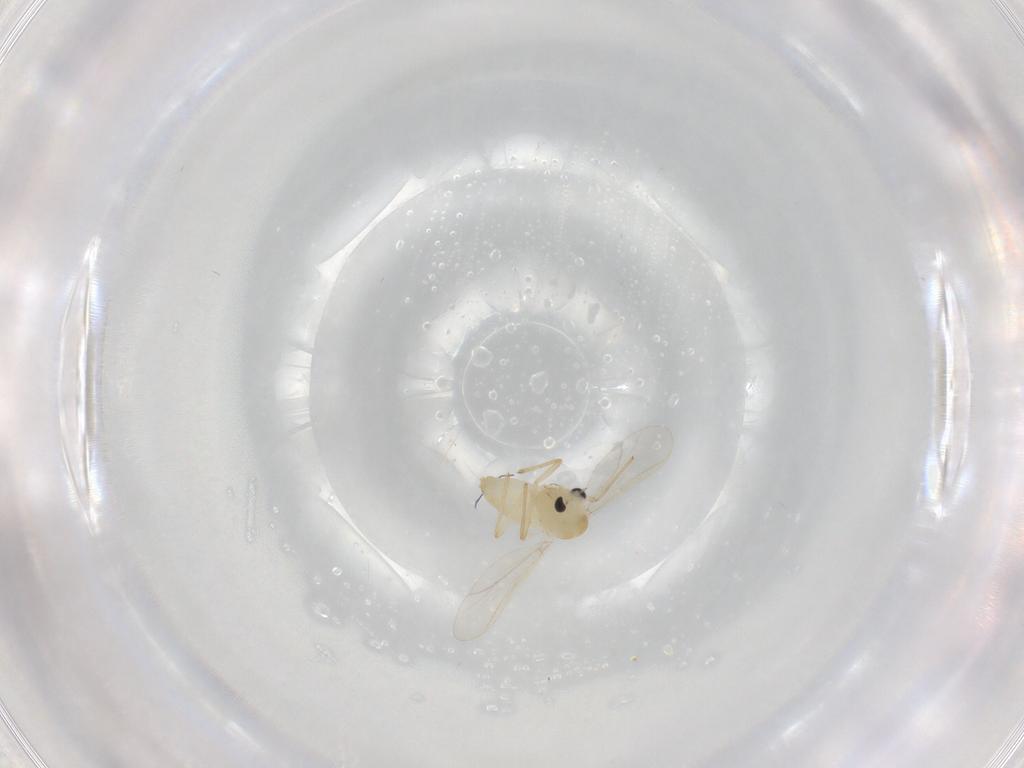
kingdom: Animalia
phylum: Arthropoda
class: Insecta
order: Diptera
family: Chironomidae
